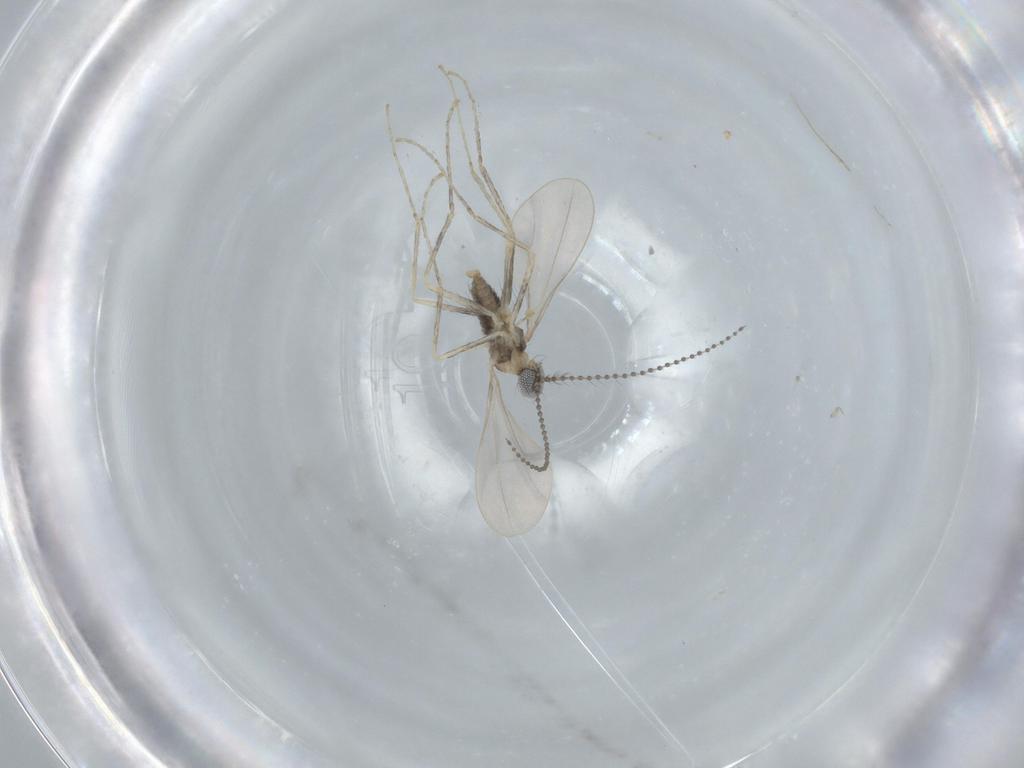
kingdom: Animalia
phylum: Arthropoda
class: Insecta
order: Diptera
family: Cecidomyiidae
